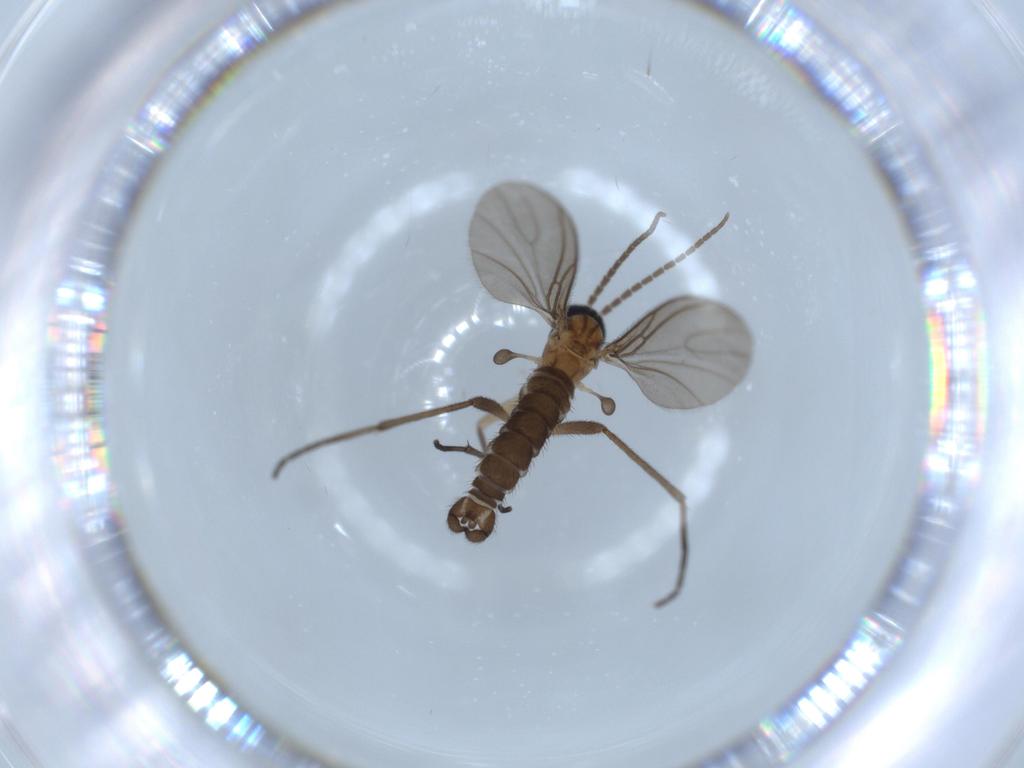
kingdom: Animalia
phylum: Arthropoda
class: Insecta
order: Diptera
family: Sciaridae
